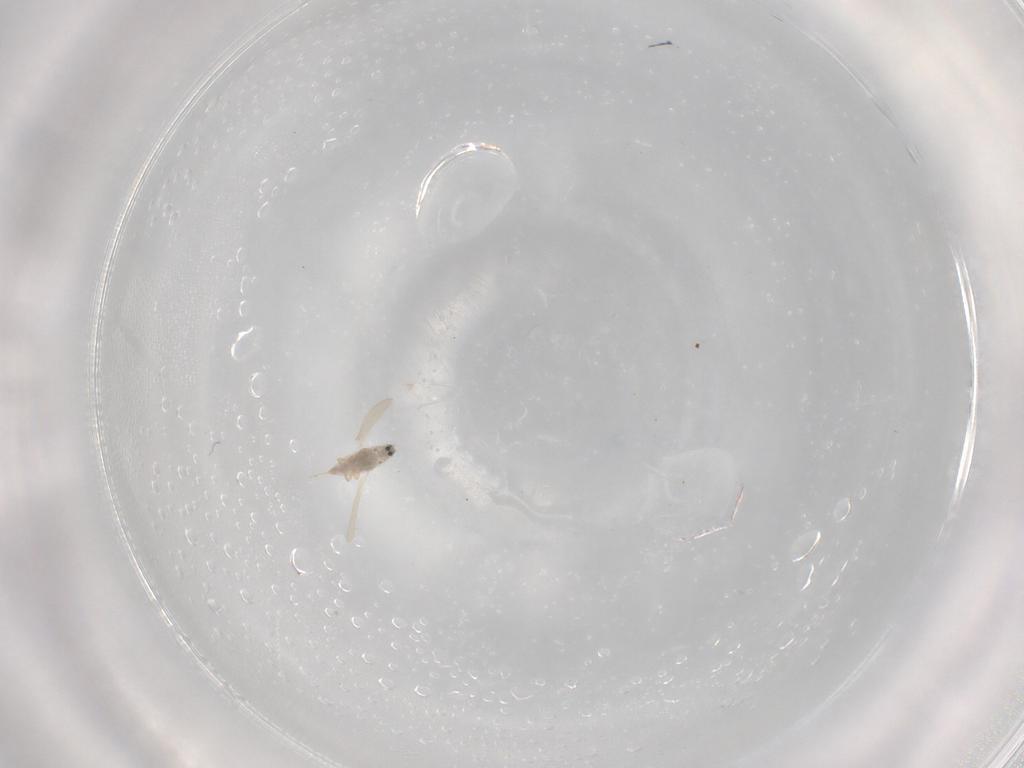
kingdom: Animalia
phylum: Arthropoda
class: Insecta
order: Hemiptera
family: Diaspididae
